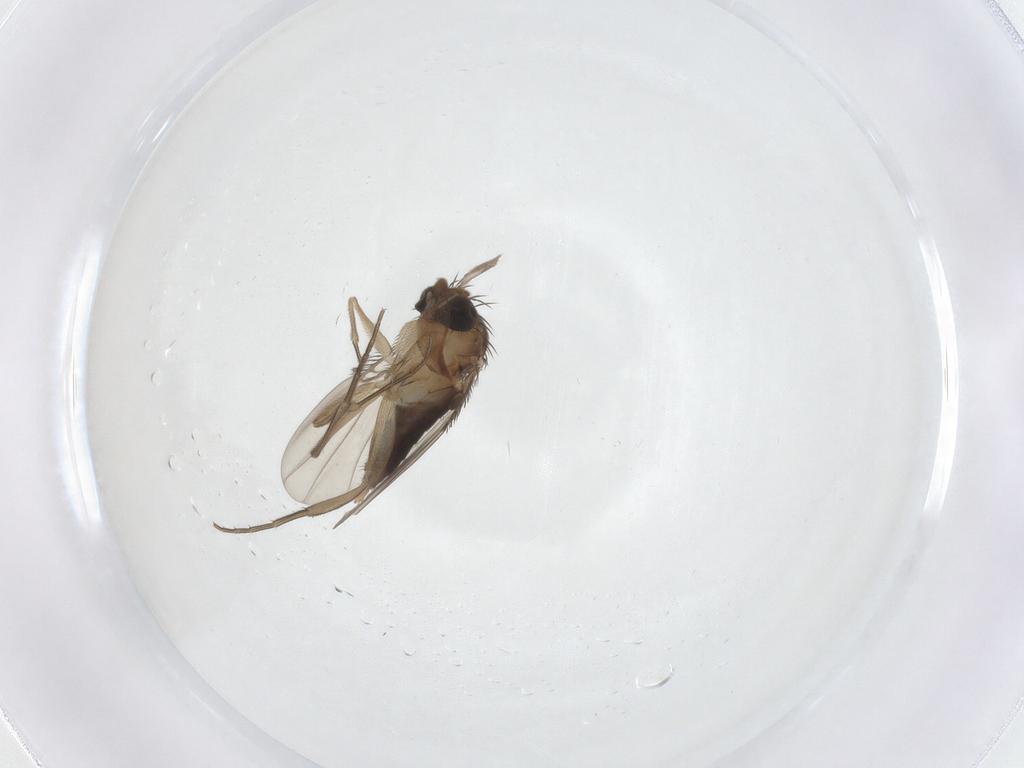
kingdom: Animalia
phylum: Arthropoda
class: Insecta
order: Diptera
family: Phoridae
